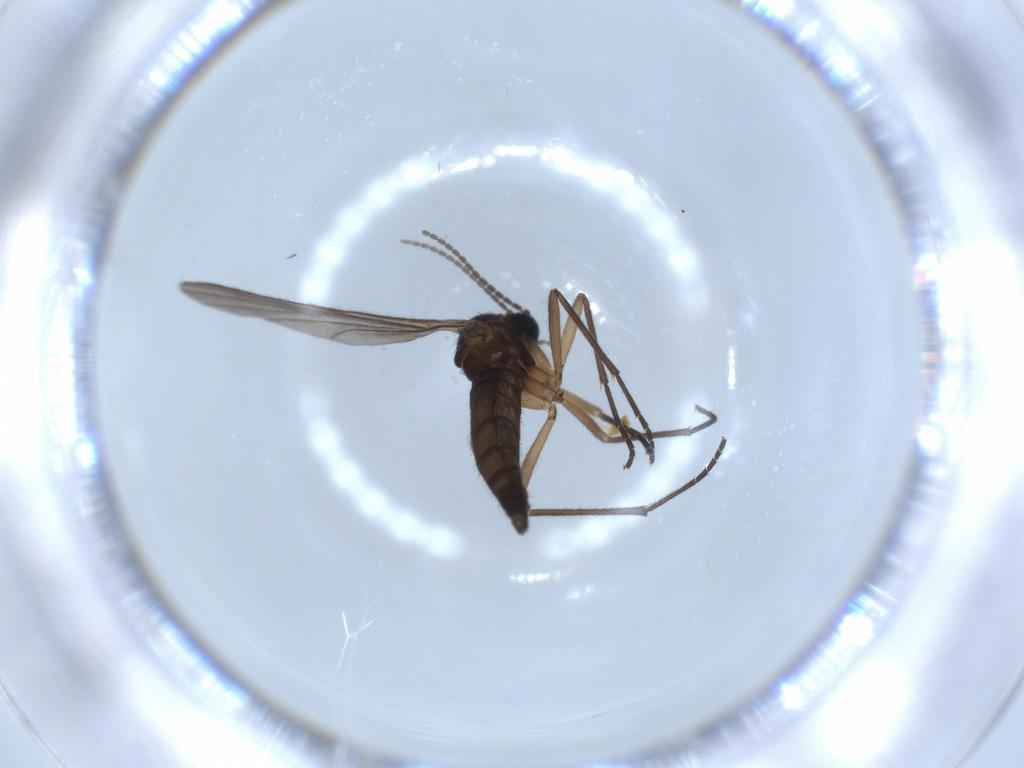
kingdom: Animalia
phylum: Arthropoda
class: Insecta
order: Diptera
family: Sciaridae
